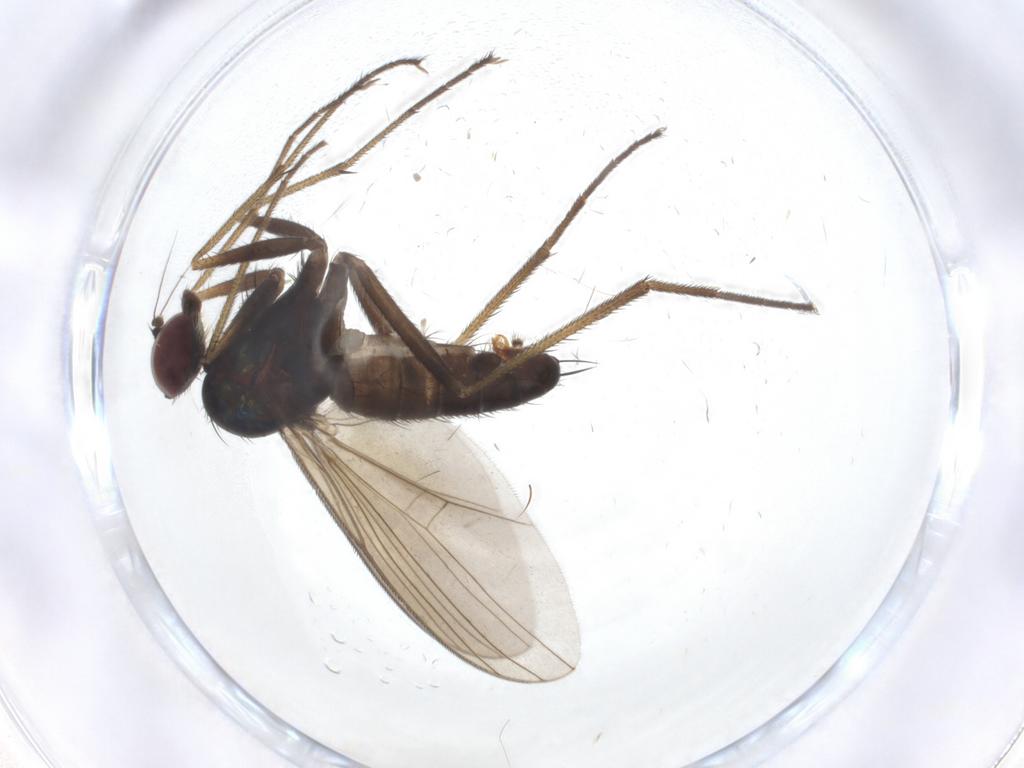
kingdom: Animalia
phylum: Arthropoda
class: Insecta
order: Diptera
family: Dolichopodidae
